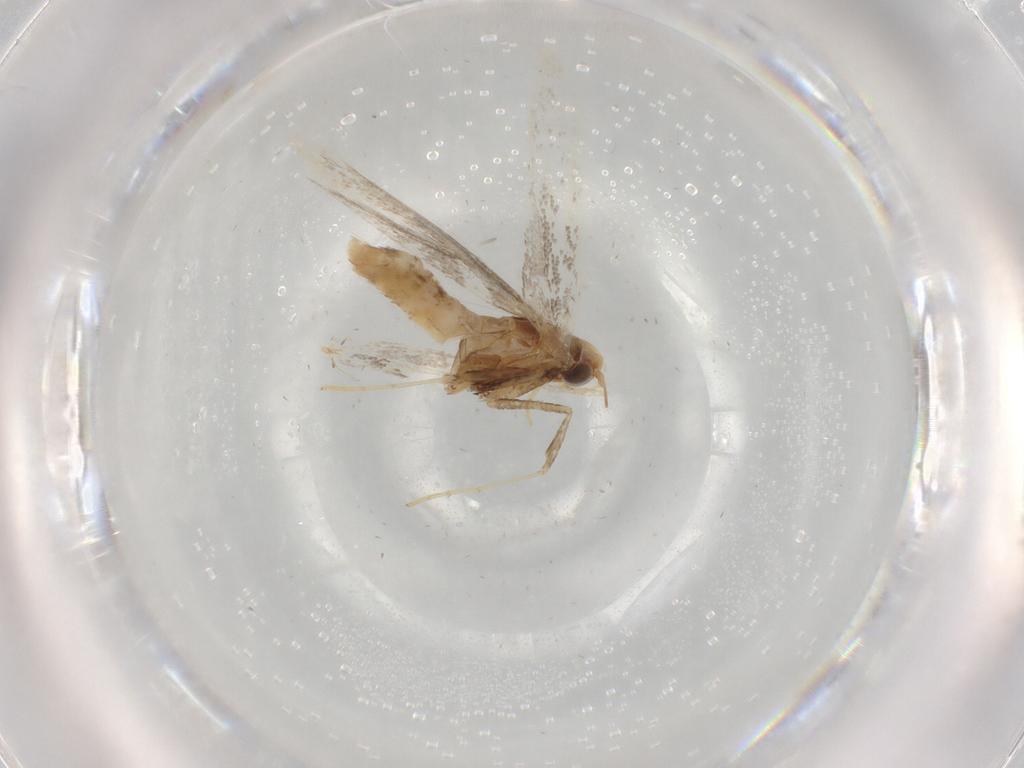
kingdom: Animalia
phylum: Arthropoda
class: Insecta
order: Lepidoptera
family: Gracillariidae
